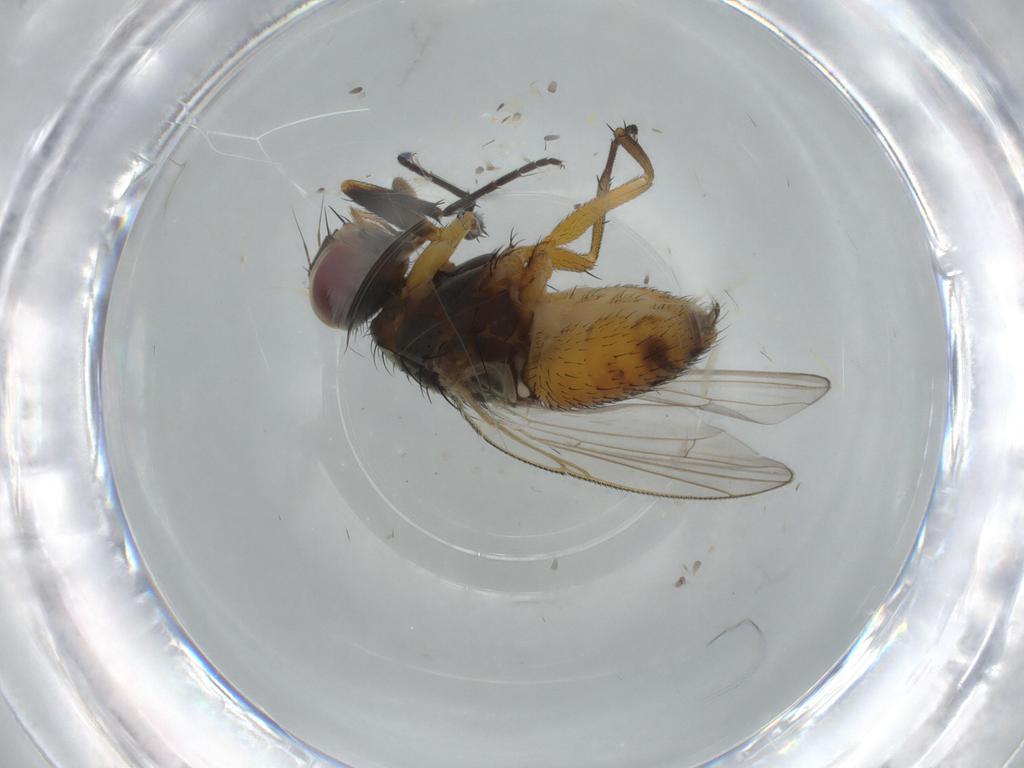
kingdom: Animalia
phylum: Arthropoda
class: Insecta
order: Diptera
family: Muscidae
